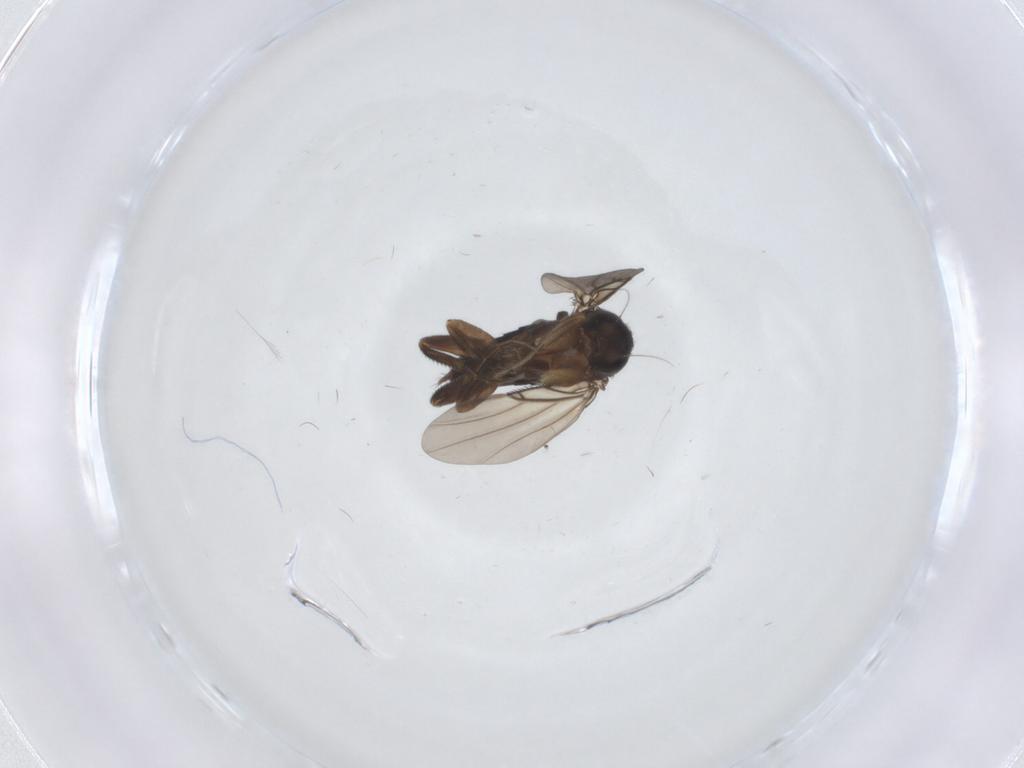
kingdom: Animalia
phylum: Arthropoda
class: Insecta
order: Diptera
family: Phoridae
